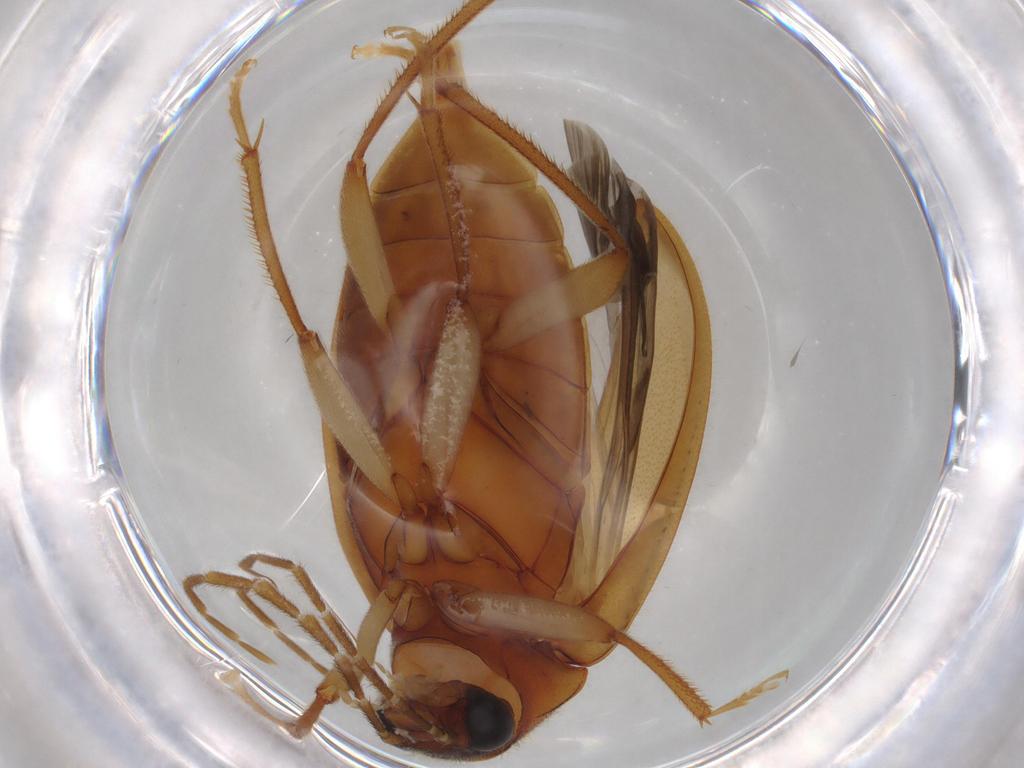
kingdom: Animalia
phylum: Arthropoda
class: Insecta
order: Coleoptera
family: Ptilodactylidae
